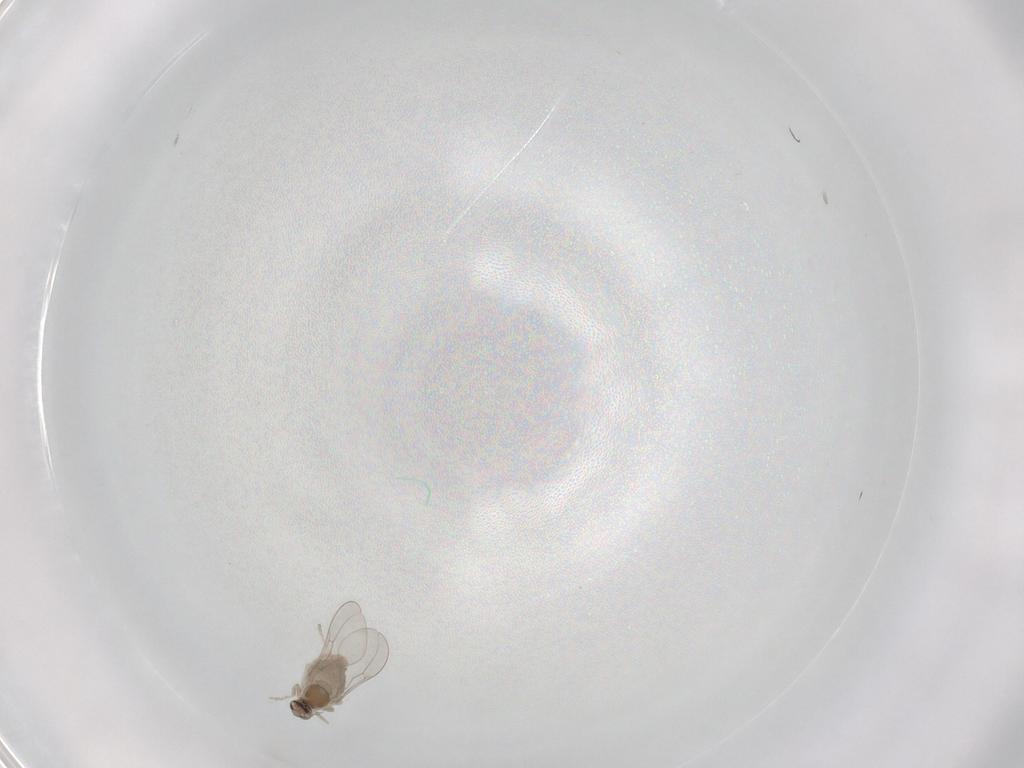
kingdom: Animalia
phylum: Arthropoda
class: Insecta
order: Diptera
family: Cecidomyiidae
